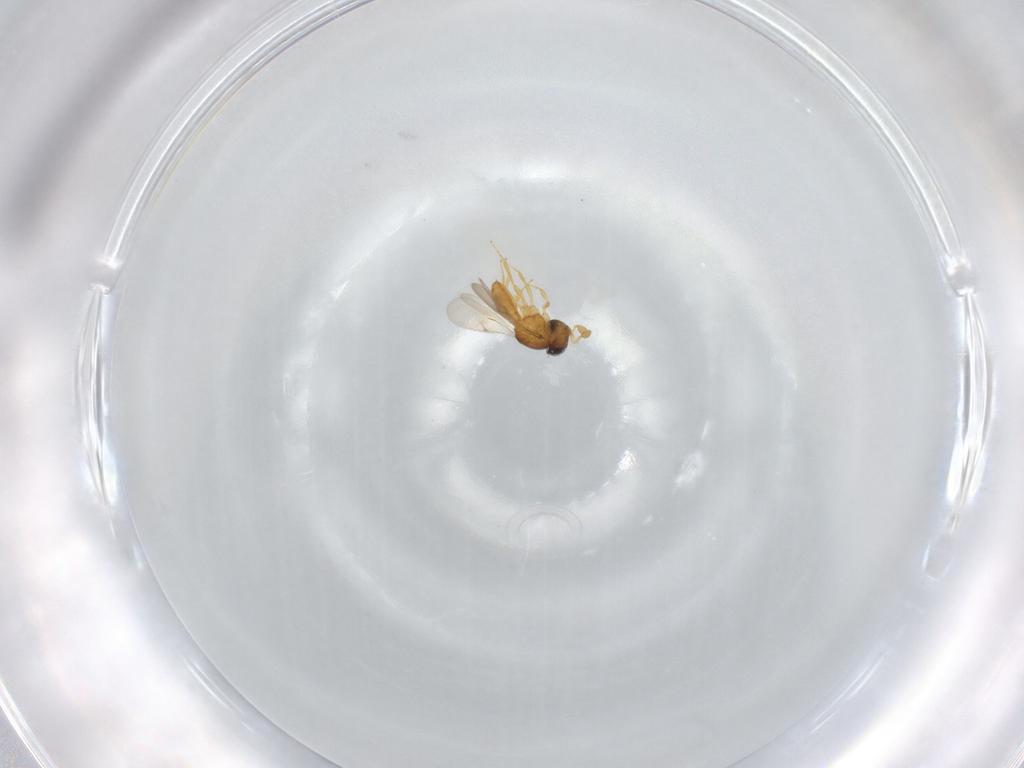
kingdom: Animalia
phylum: Arthropoda
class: Insecta
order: Hymenoptera
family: Scelionidae
